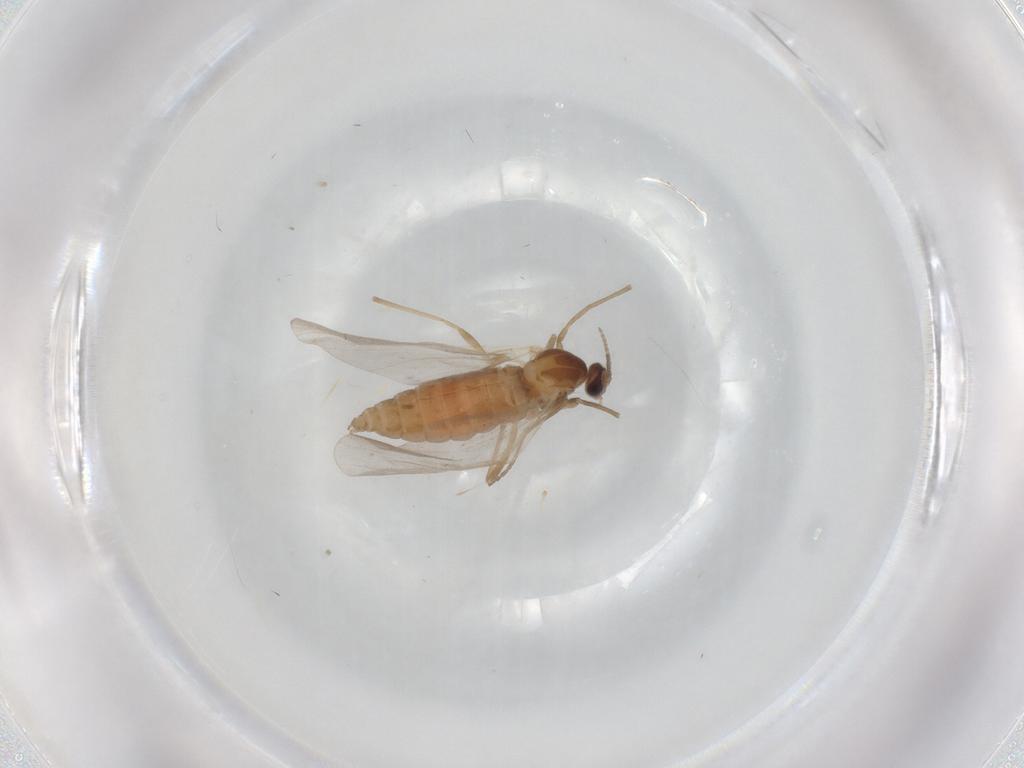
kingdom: Animalia
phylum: Arthropoda
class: Insecta
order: Diptera
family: Cecidomyiidae
